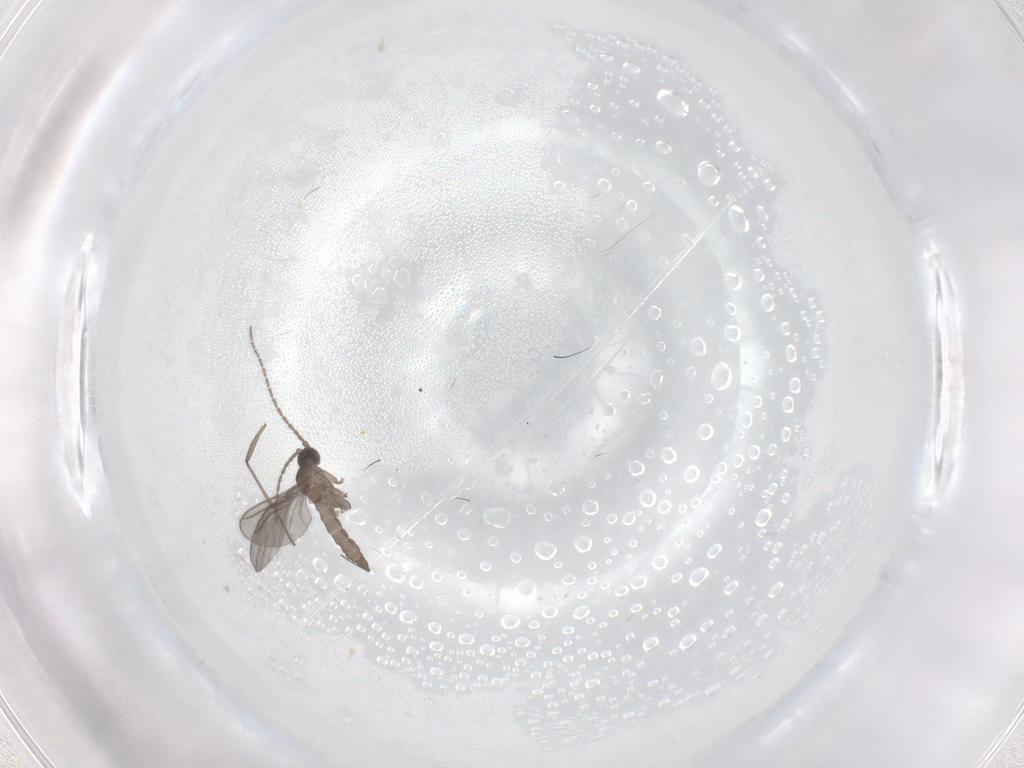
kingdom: Animalia
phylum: Arthropoda
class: Insecta
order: Diptera
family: Sciaridae
